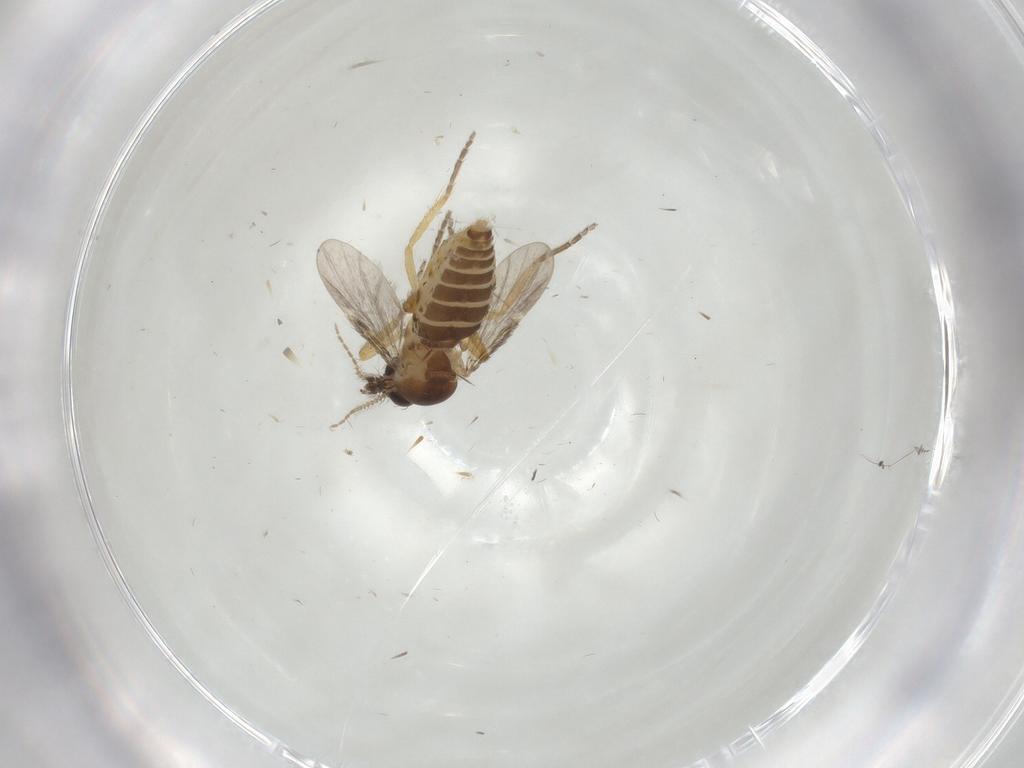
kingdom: Animalia
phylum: Arthropoda
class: Insecta
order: Diptera
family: Ceratopogonidae
